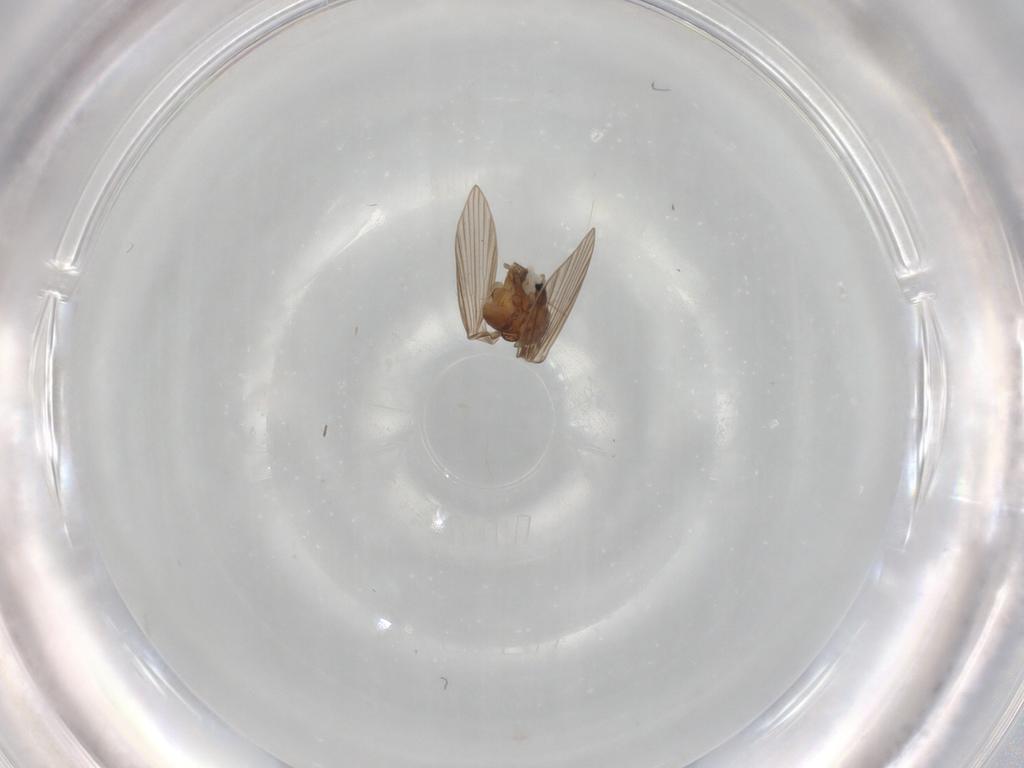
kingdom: Animalia
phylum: Arthropoda
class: Insecta
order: Diptera
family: Psychodidae
